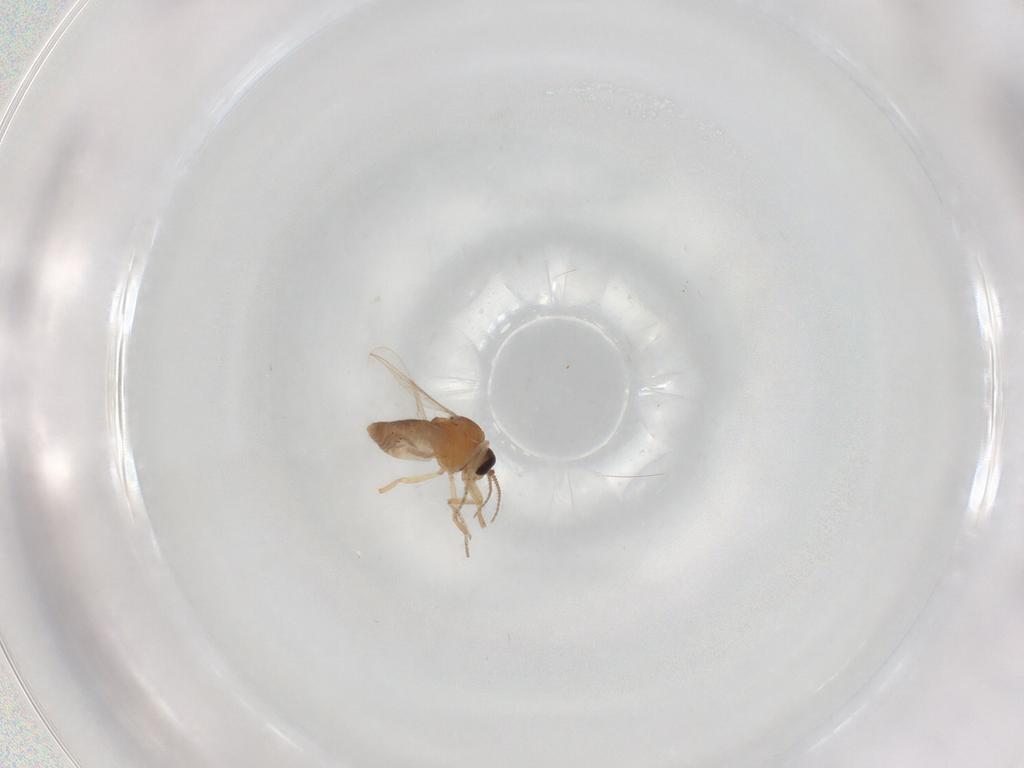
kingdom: Animalia
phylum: Arthropoda
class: Insecta
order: Diptera
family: Ceratopogonidae
